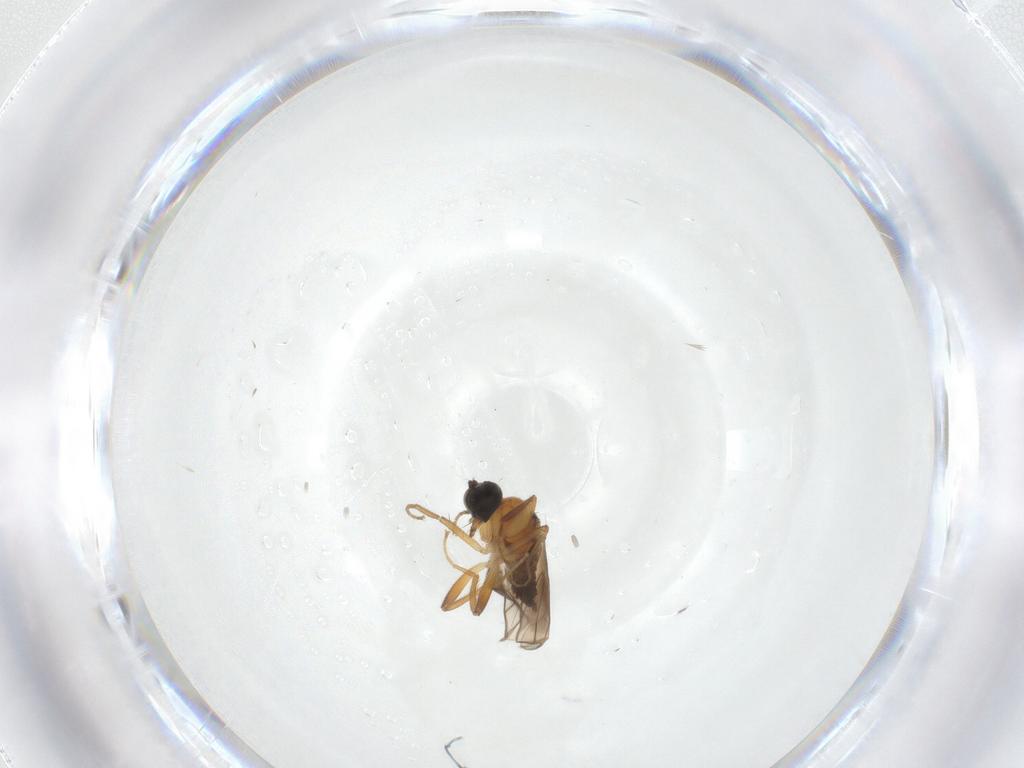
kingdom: Animalia
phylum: Arthropoda
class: Insecta
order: Diptera
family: Hybotidae
